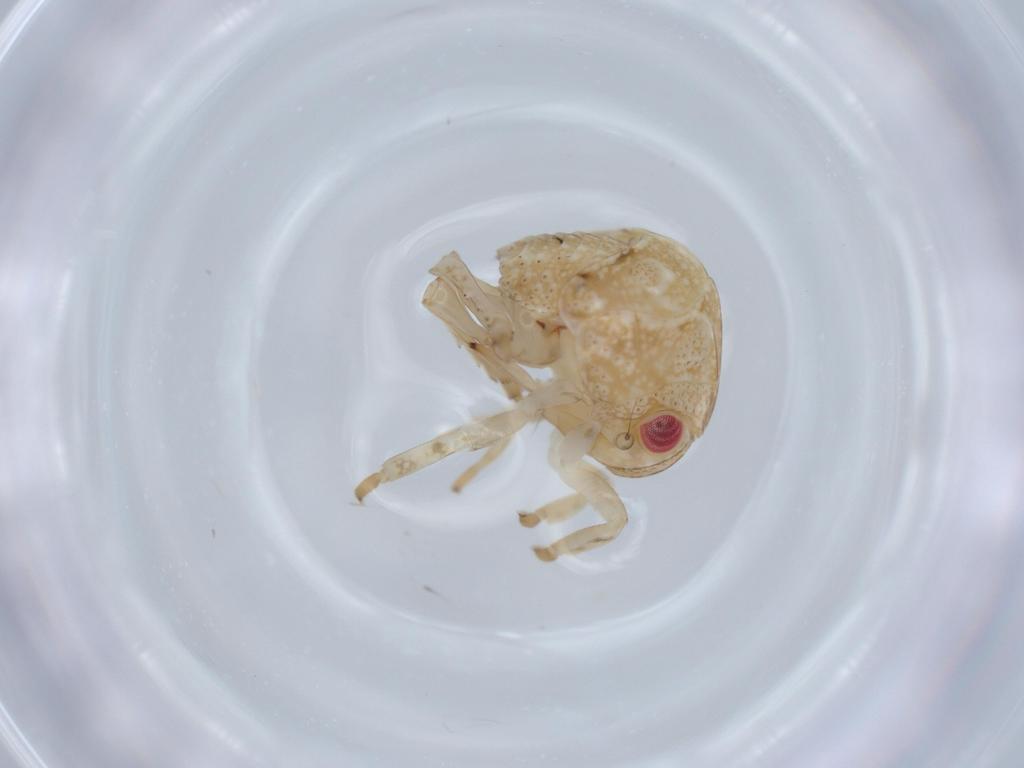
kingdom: Animalia
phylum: Arthropoda
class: Insecta
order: Hemiptera
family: Acanaloniidae
